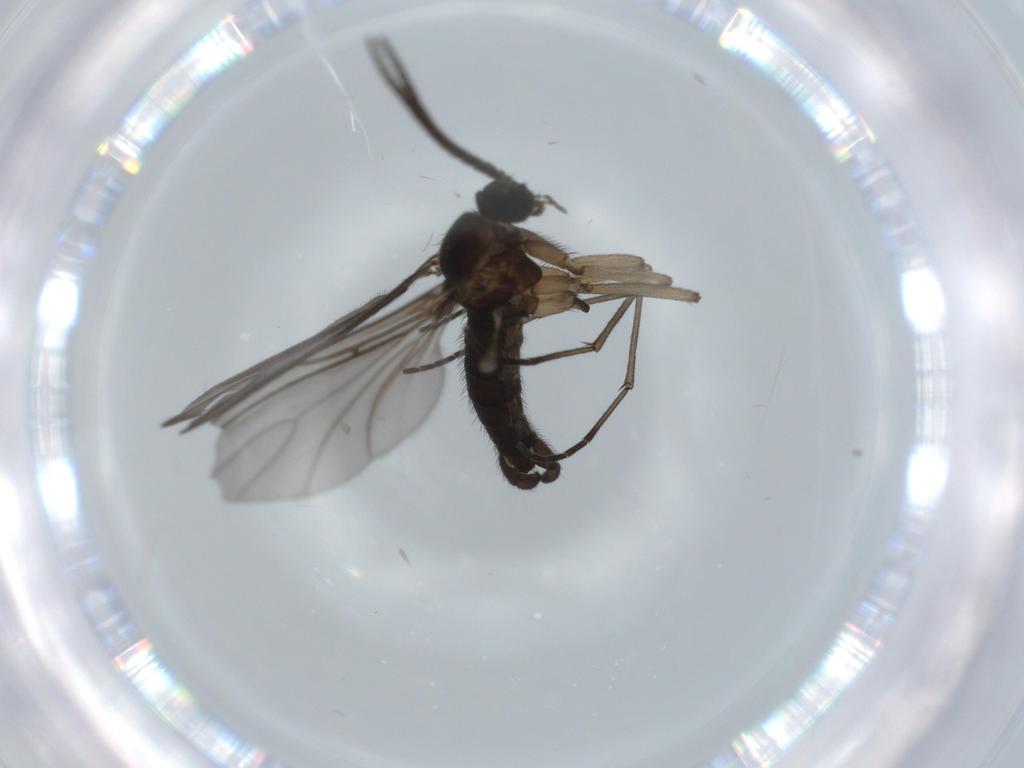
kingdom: Animalia
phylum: Arthropoda
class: Insecta
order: Diptera
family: Sciaridae
